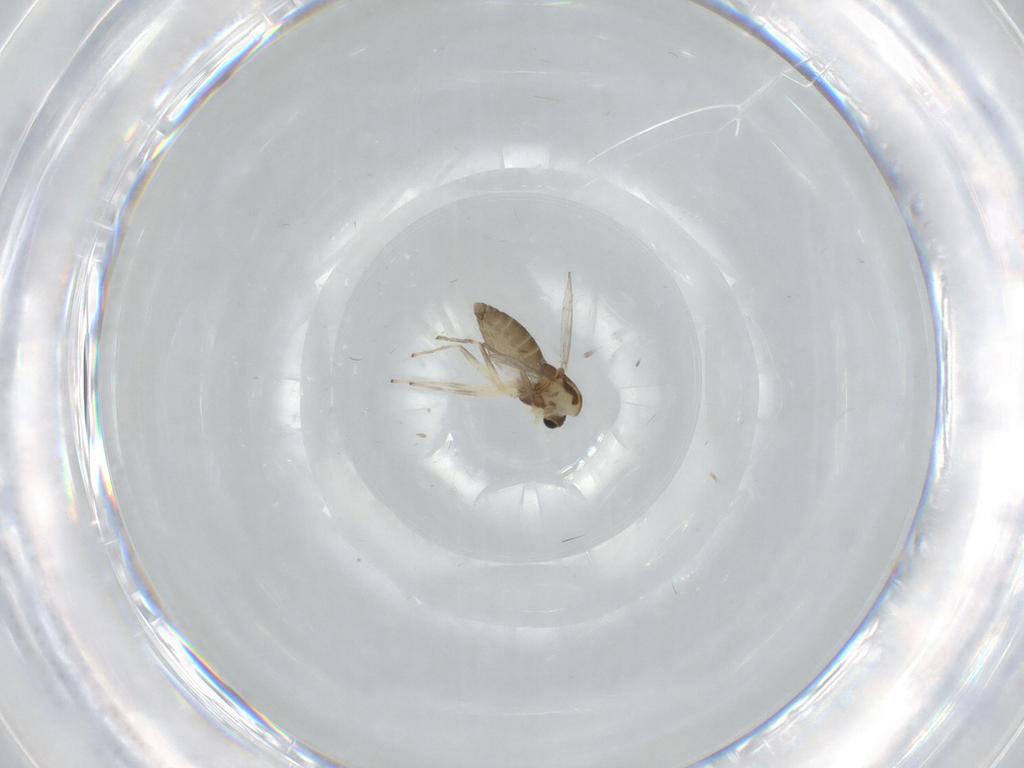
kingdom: Animalia
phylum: Arthropoda
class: Insecta
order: Diptera
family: Chironomidae
